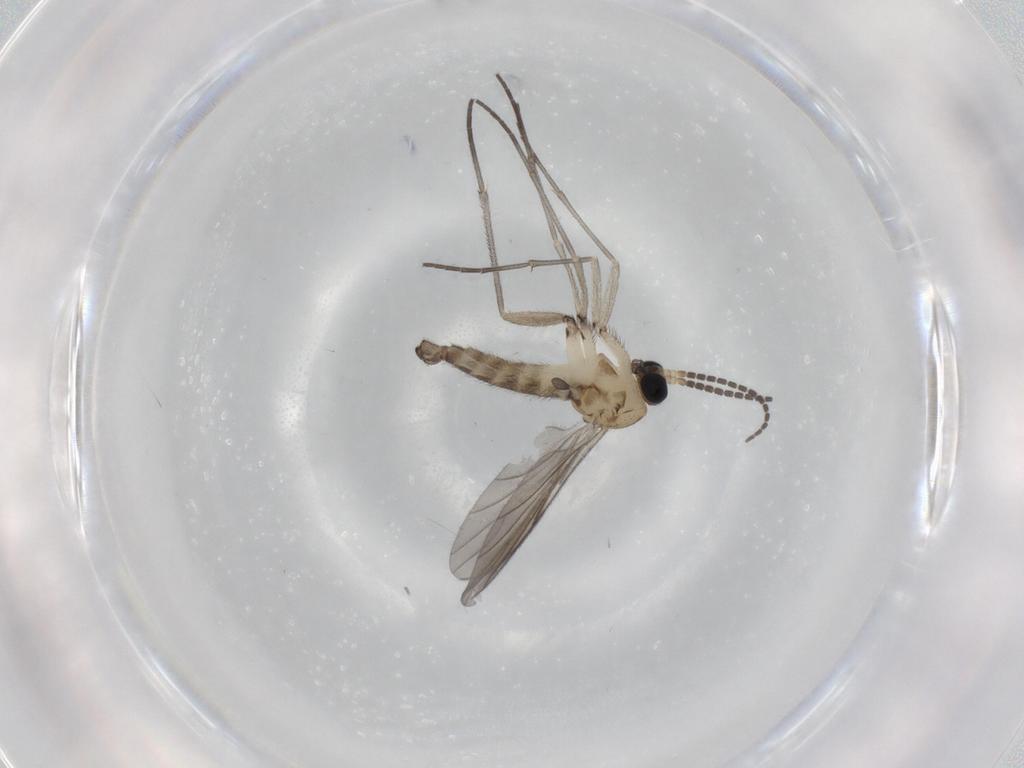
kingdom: Animalia
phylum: Arthropoda
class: Insecta
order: Diptera
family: Sciaridae
